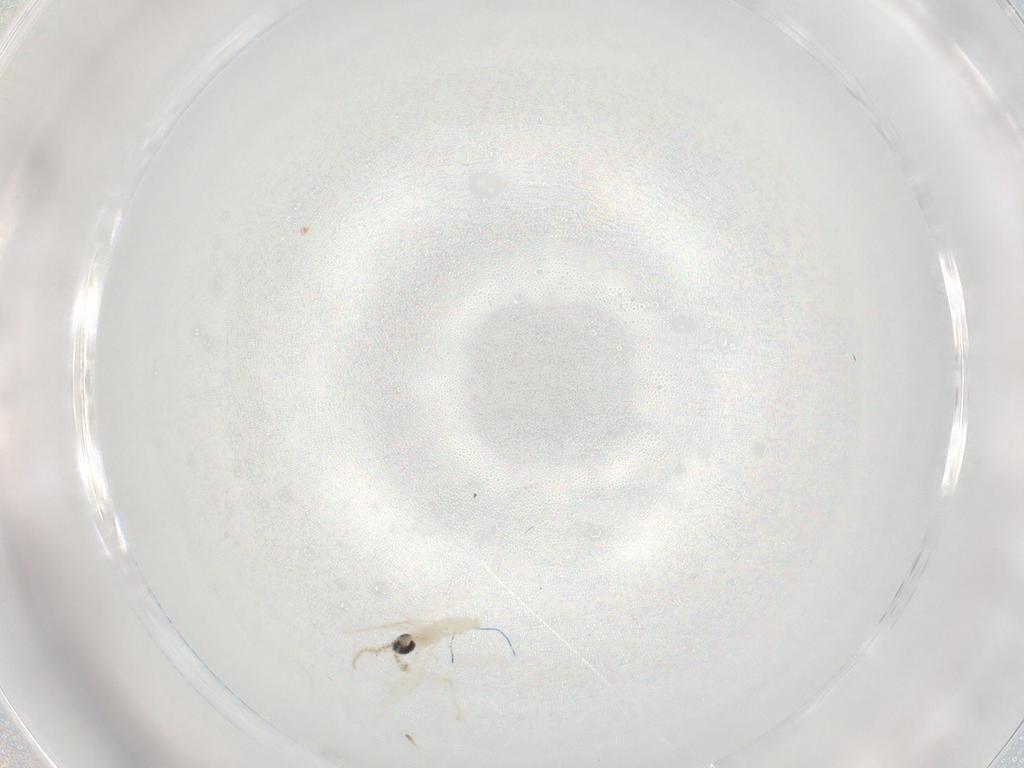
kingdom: Animalia
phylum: Arthropoda
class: Insecta
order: Diptera
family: Cecidomyiidae
